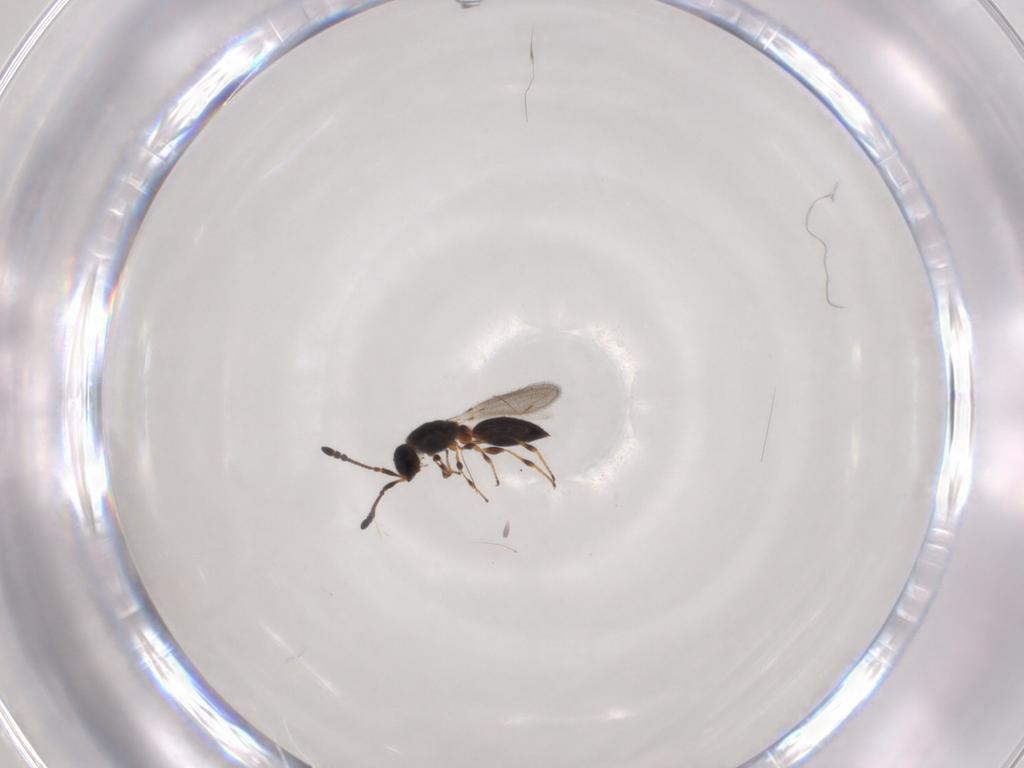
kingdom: Animalia
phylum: Arthropoda
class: Insecta
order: Hymenoptera
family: Diapriidae
